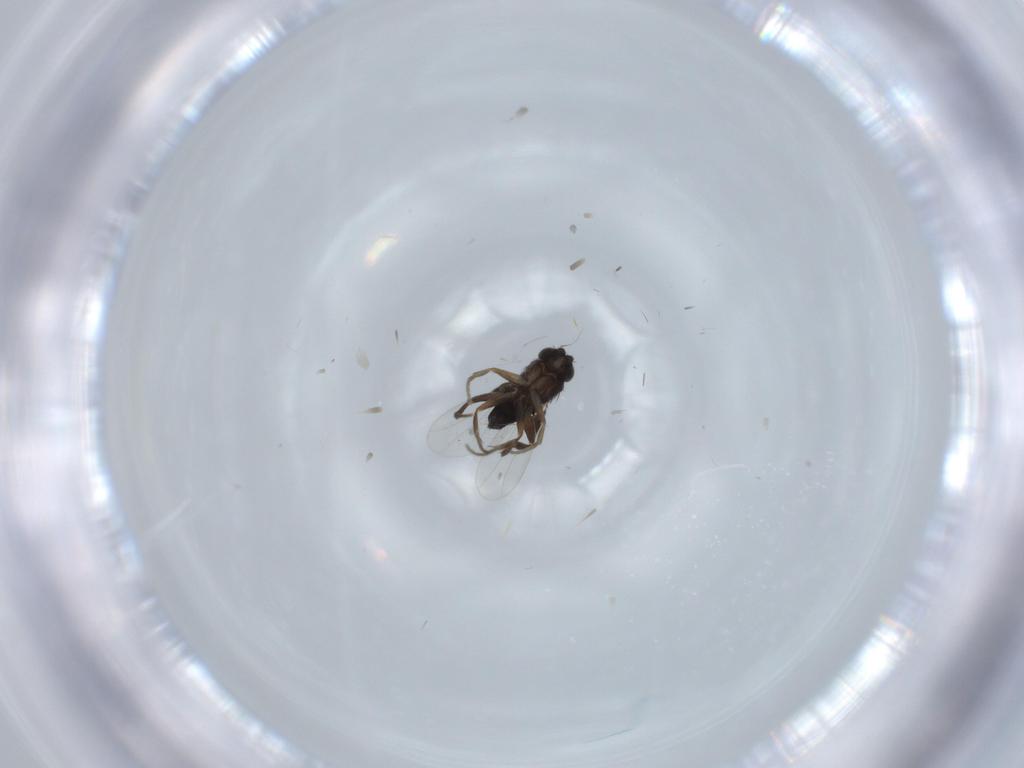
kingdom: Animalia
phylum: Arthropoda
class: Insecta
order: Diptera
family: Phoridae
